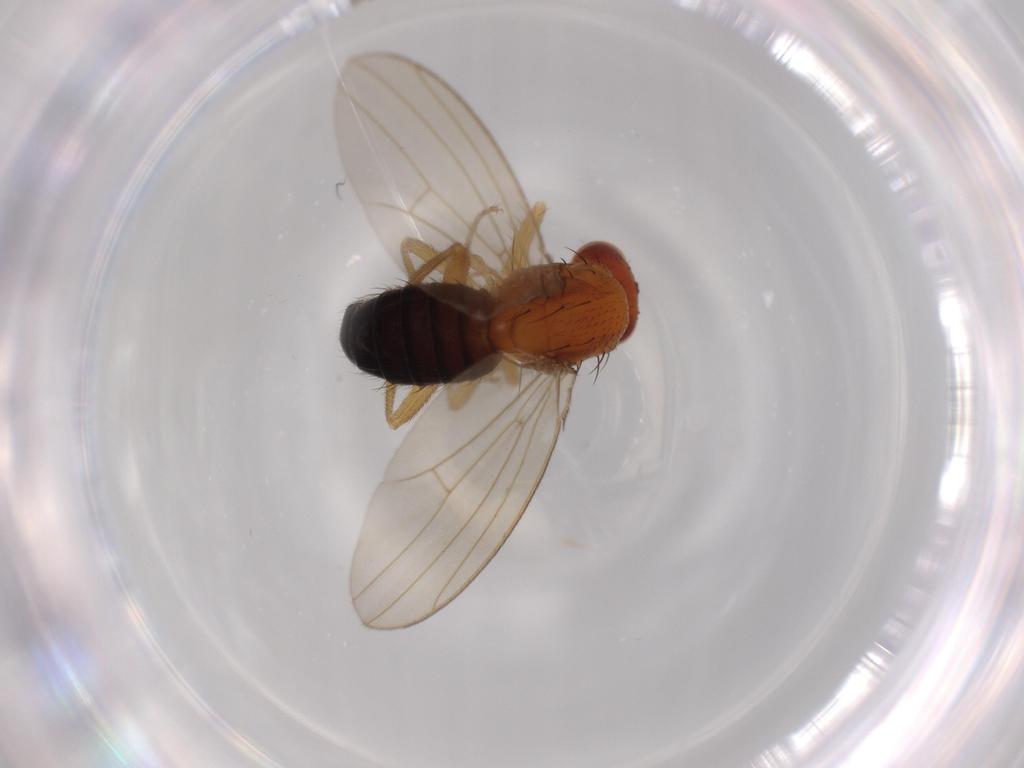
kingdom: Animalia
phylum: Arthropoda
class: Insecta
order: Diptera
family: Drosophilidae
